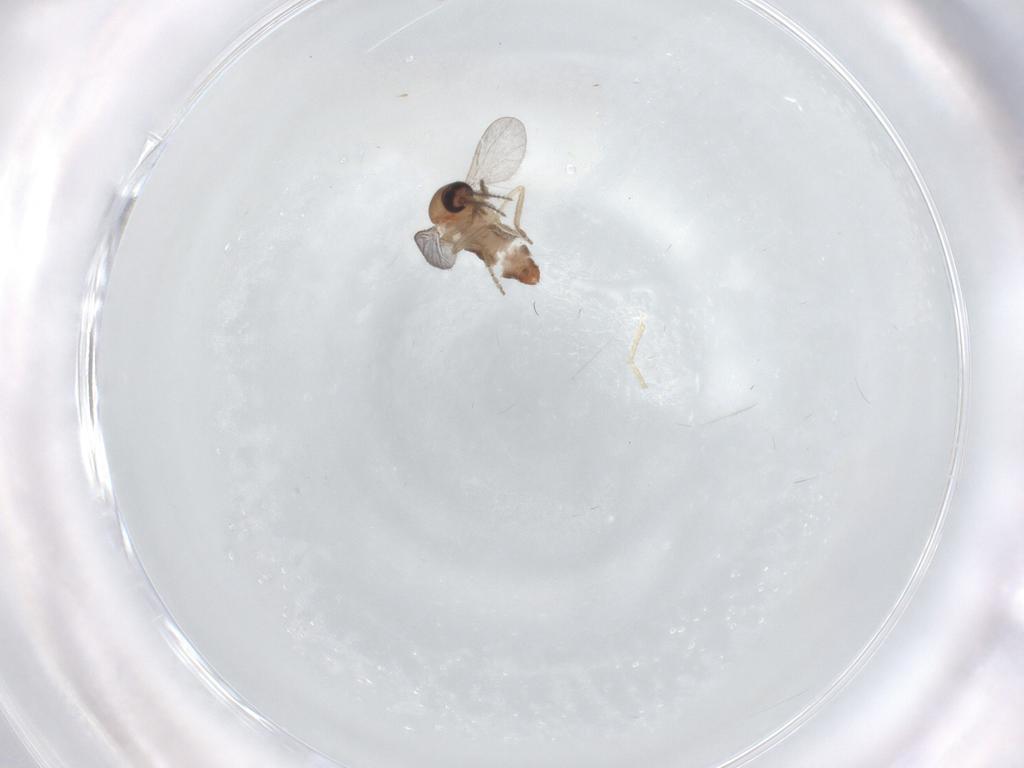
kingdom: Animalia
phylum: Arthropoda
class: Insecta
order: Diptera
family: Ceratopogonidae
